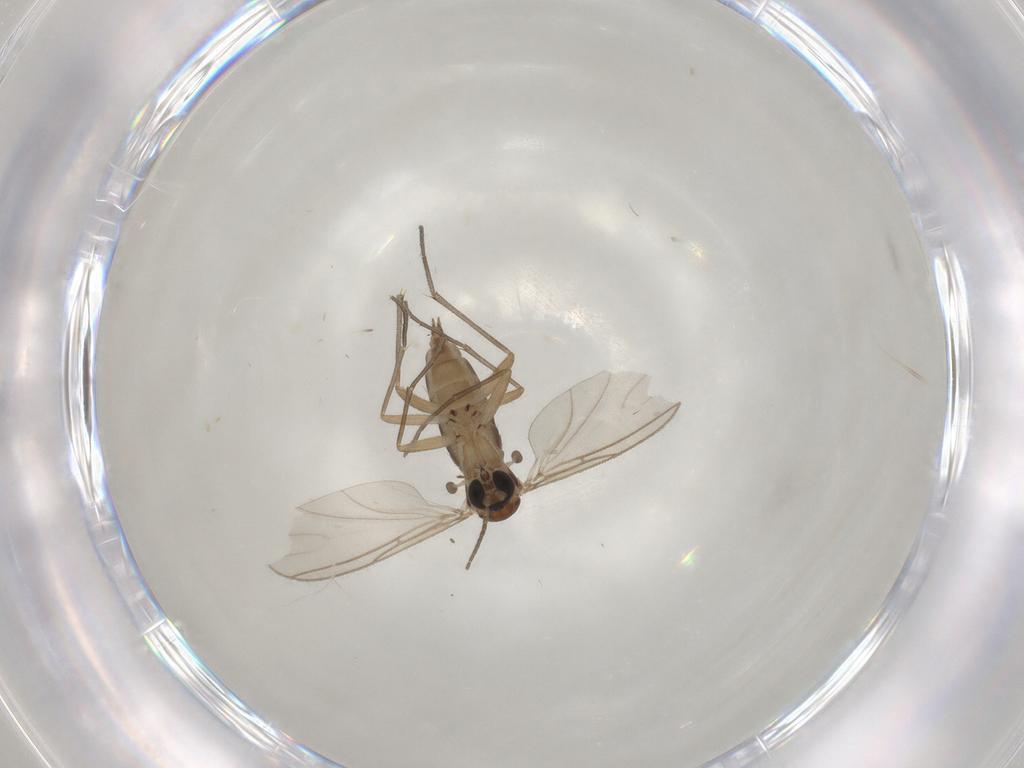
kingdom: Animalia
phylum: Arthropoda
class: Insecta
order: Diptera
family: Sciaridae
